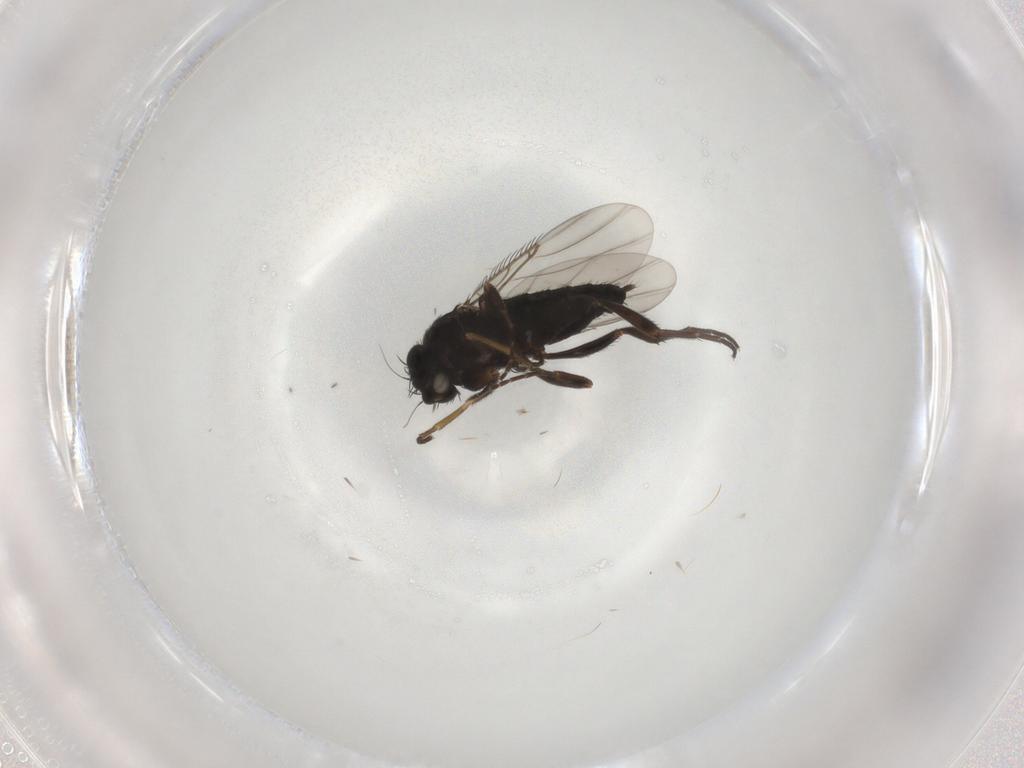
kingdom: Animalia
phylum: Arthropoda
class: Insecta
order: Diptera
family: Phoridae
